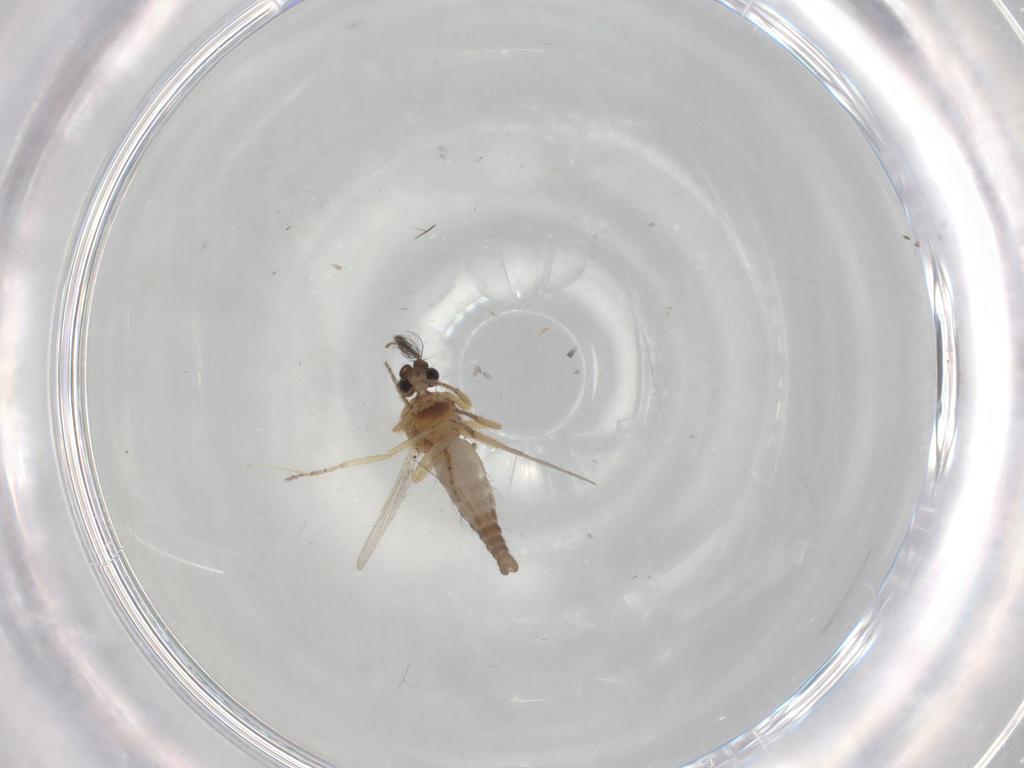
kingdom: Animalia
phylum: Arthropoda
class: Insecta
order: Diptera
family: Ceratopogonidae
